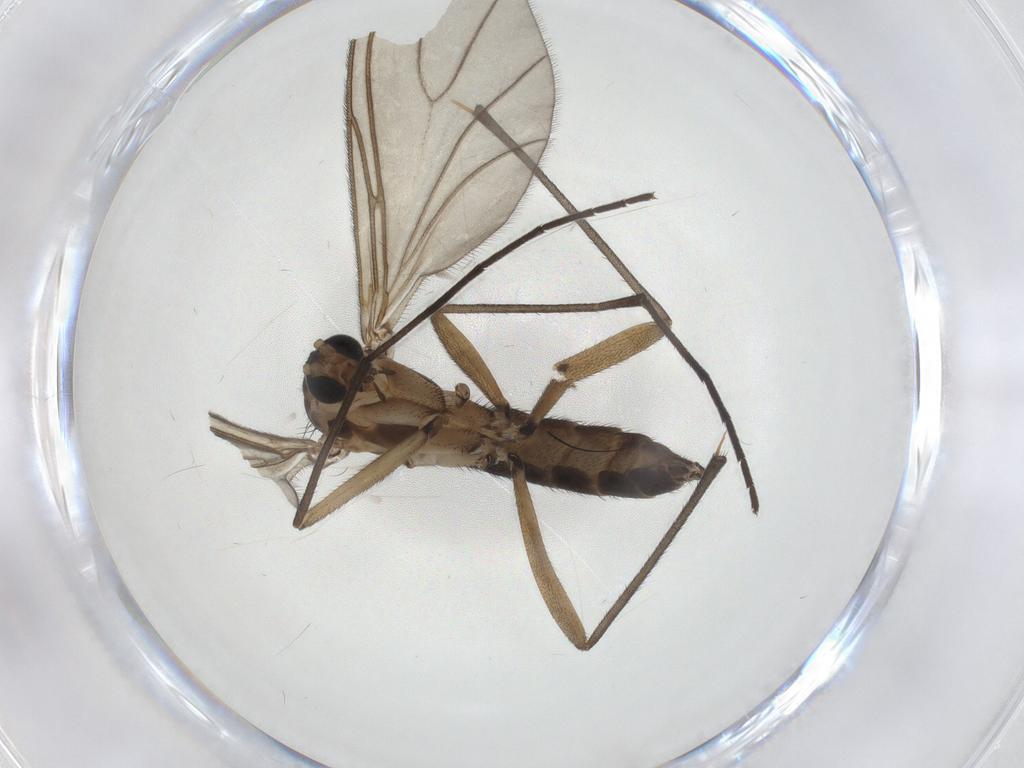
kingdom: Animalia
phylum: Arthropoda
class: Insecta
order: Diptera
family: Sciaridae
